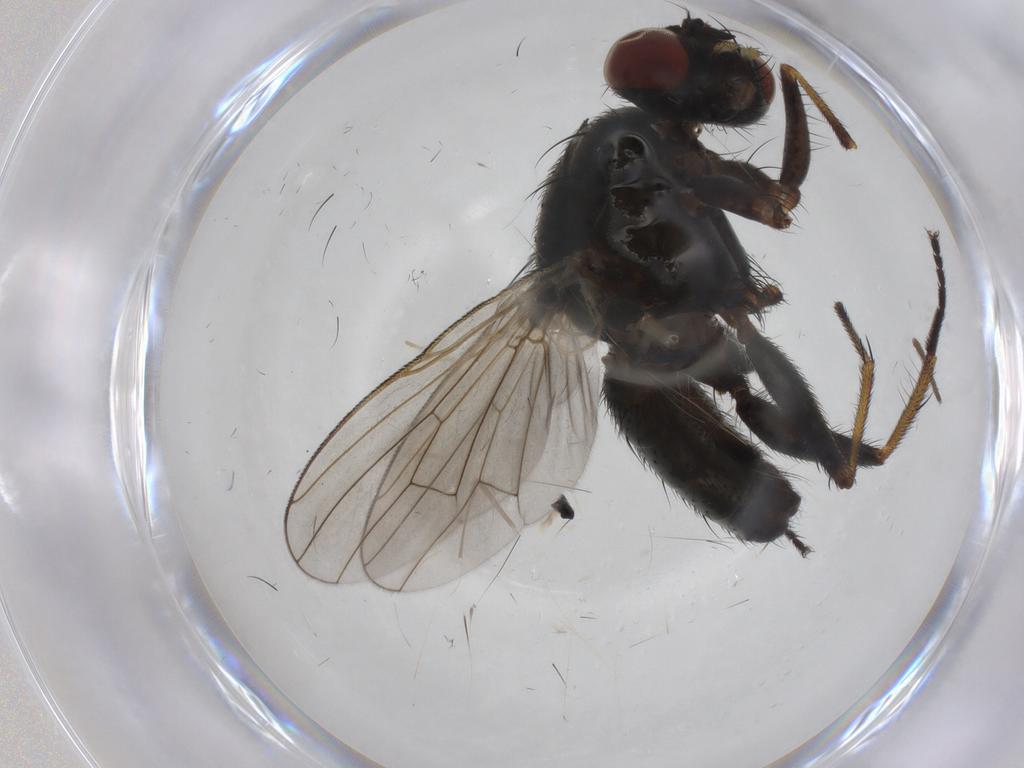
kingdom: Animalia
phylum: Arthropoda
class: Insecta
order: Diptera
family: Muscidae
